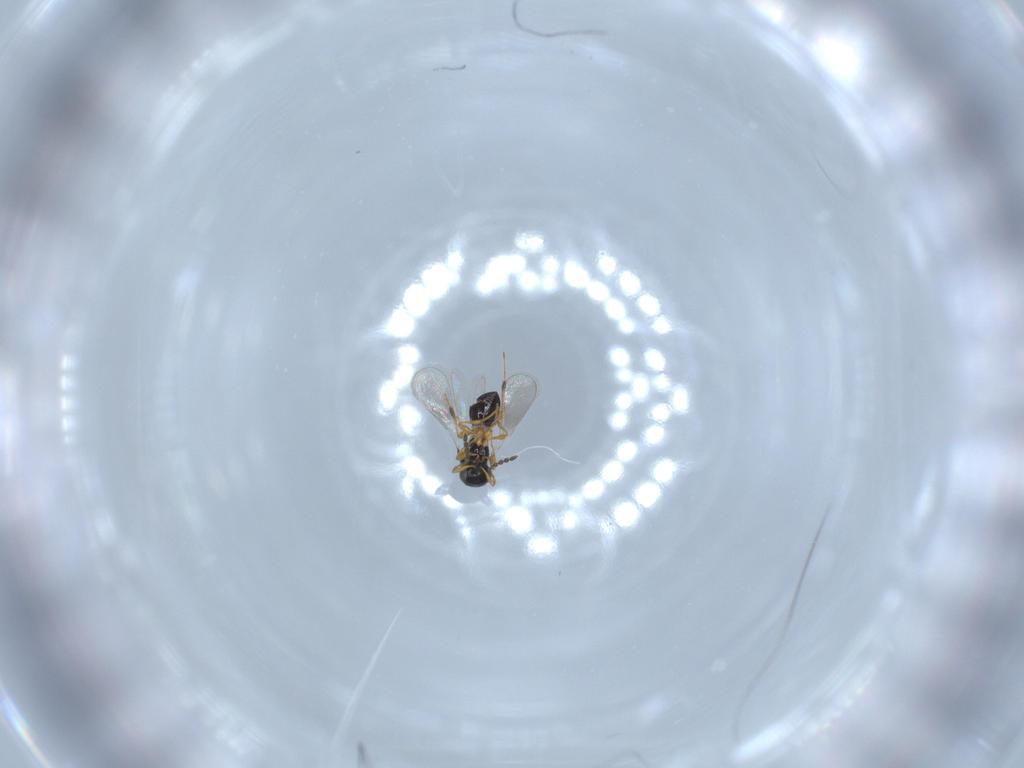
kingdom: Animalia
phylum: Arthropoda
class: Insecta
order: Hymenoptera
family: Platygastridae
